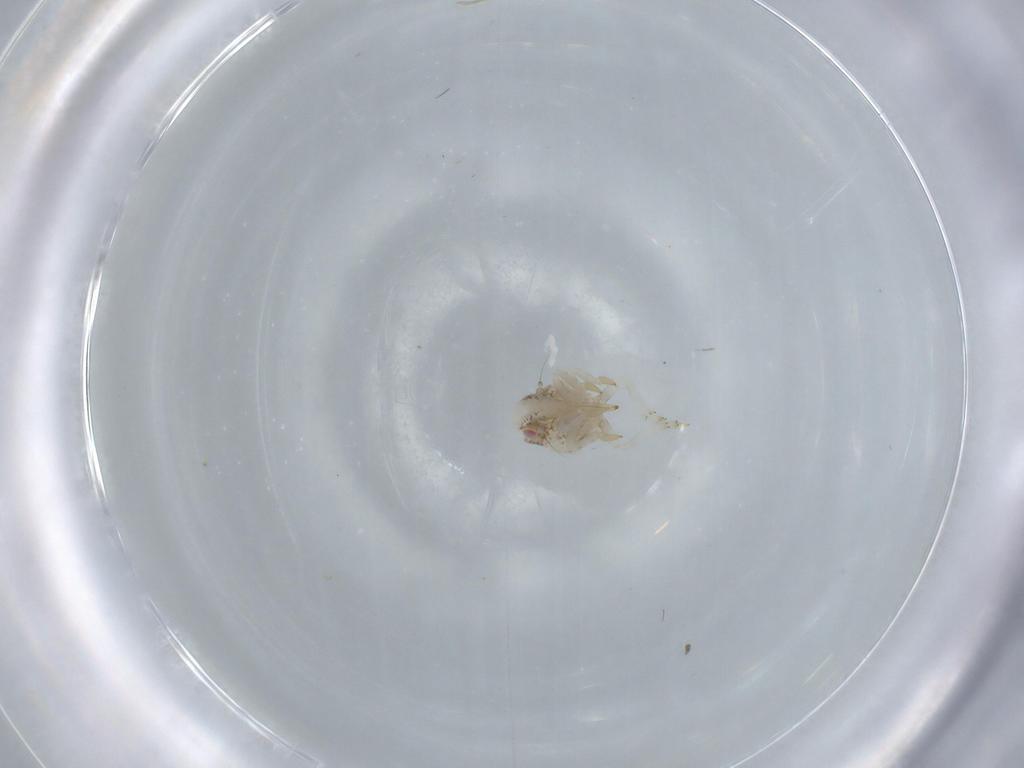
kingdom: Animalia
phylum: Arthropoda
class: Insecta
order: Hemiptera
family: Acanaloniidae
